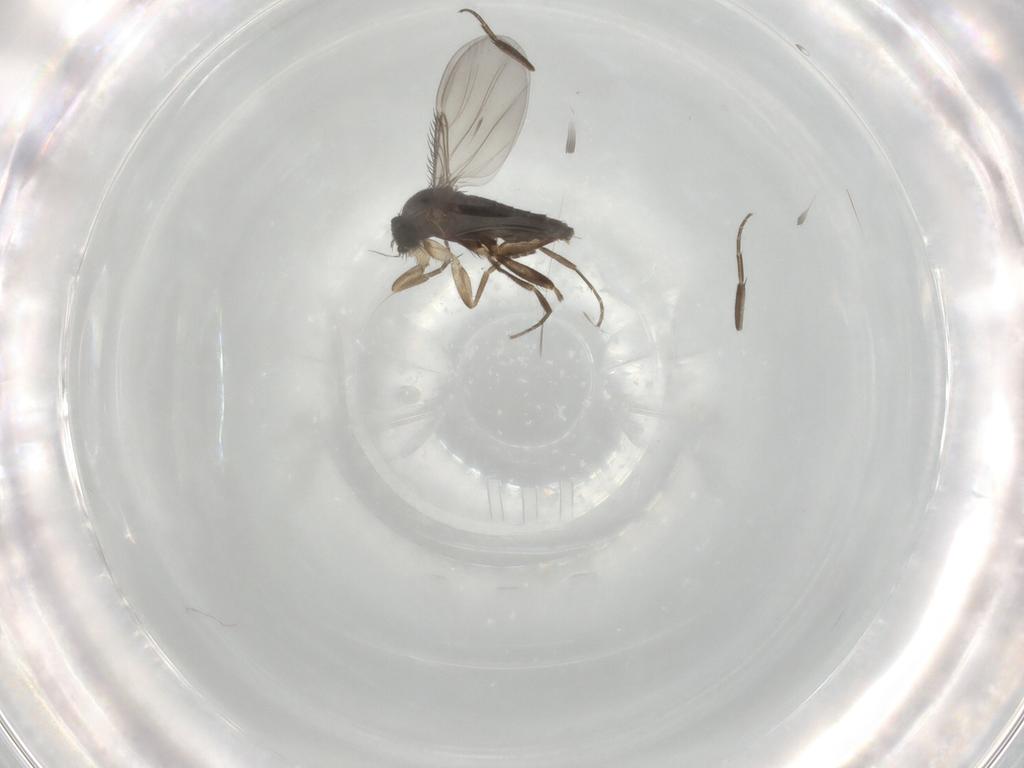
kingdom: Animalia
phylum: Arthropoda
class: Insecta
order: Diptera
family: Phoridae
